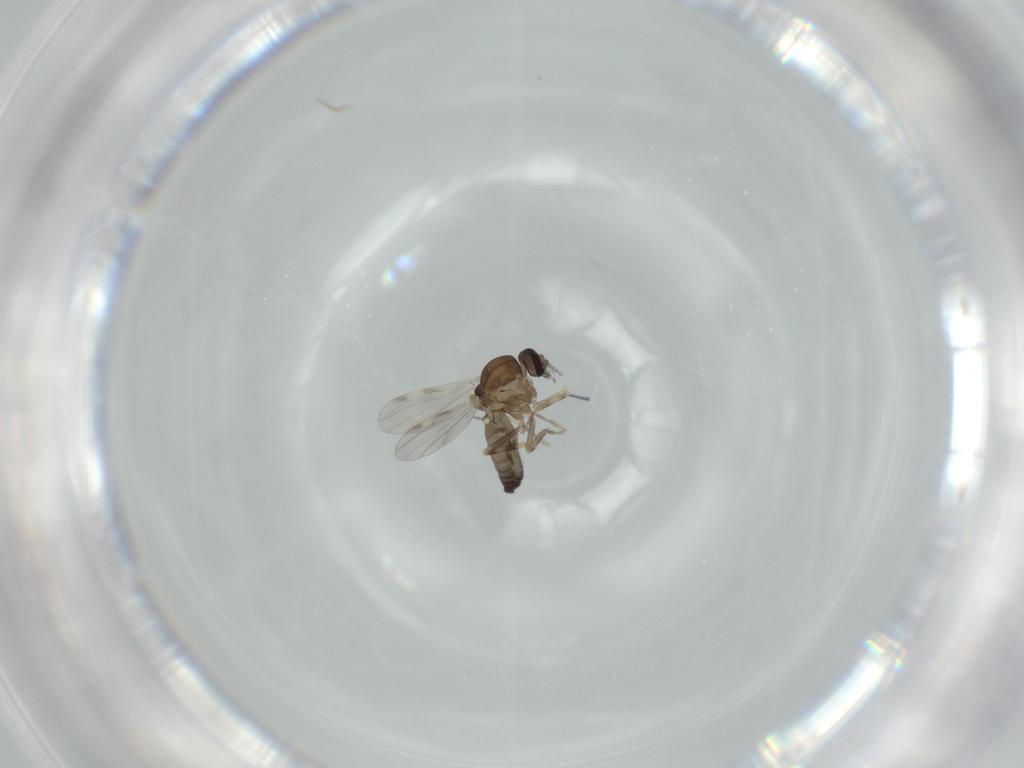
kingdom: Animalia
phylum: Arthropoda
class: Insecta
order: Diptera
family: Ceratopogonidae
